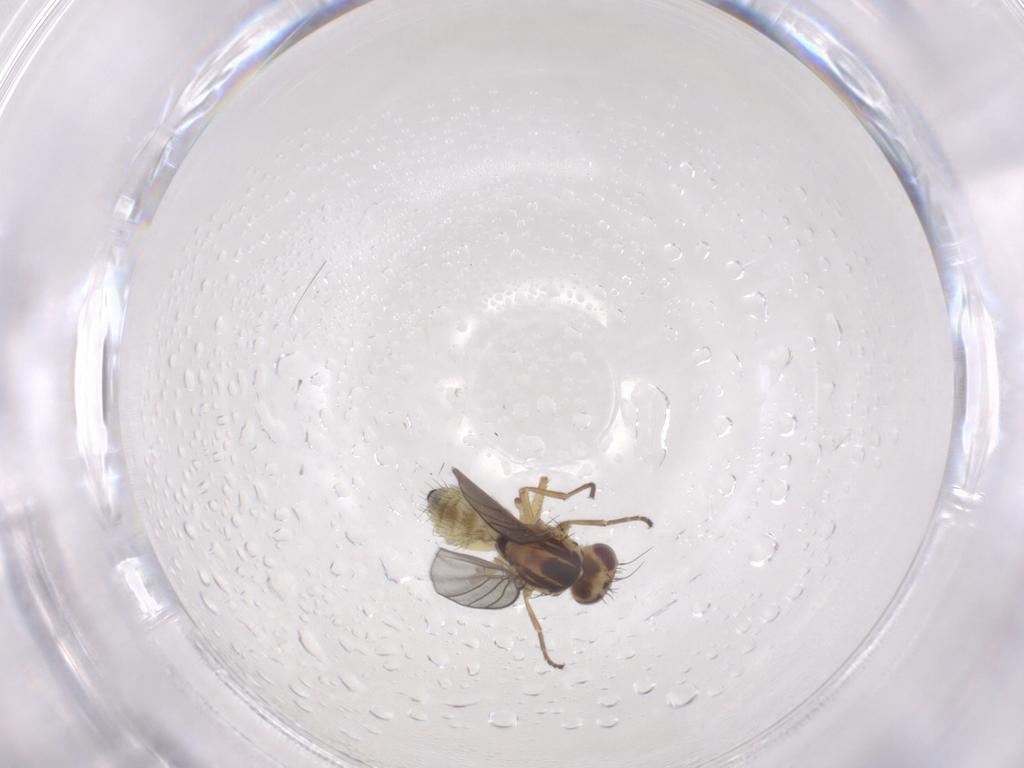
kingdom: Animalia
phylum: Arthropoda
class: Insecta
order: Diptera
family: Agromyzidae
